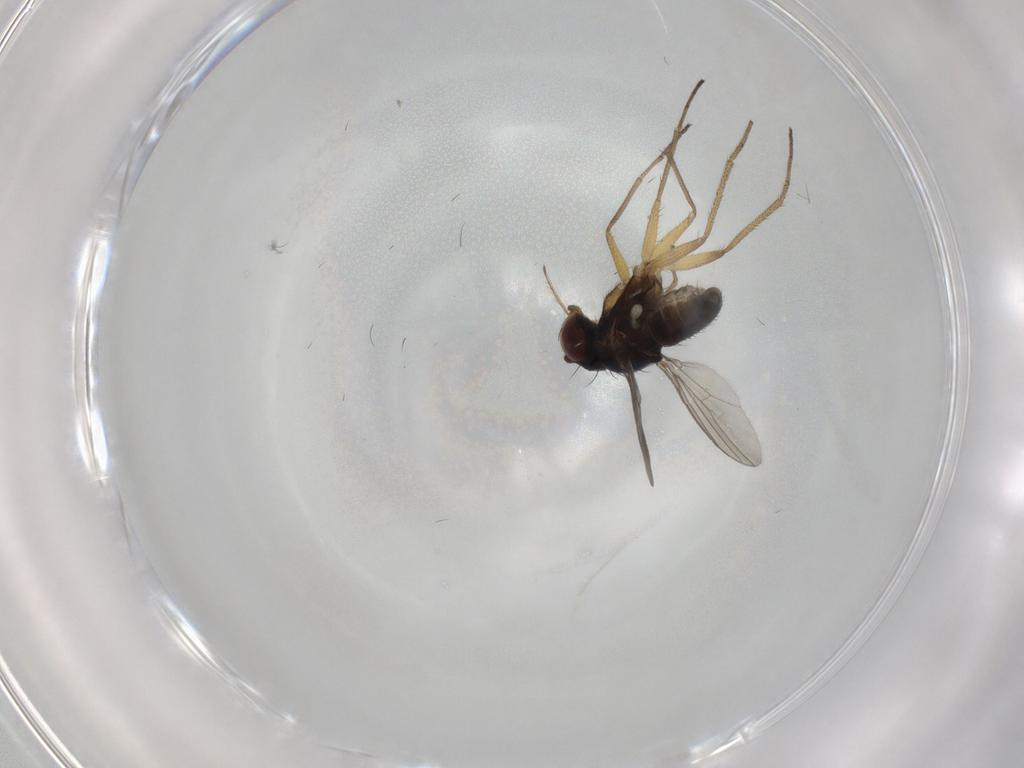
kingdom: Animalia
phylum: Arthropoda
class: Insecta
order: Diptera
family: Dolichopodidae
